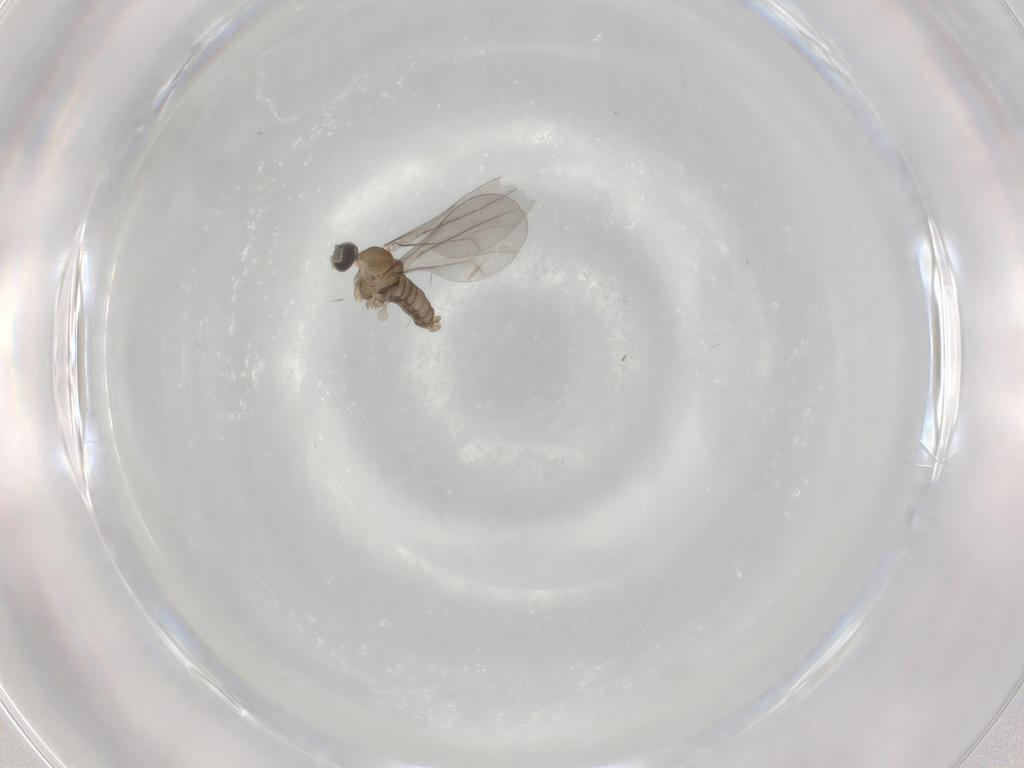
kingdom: Animalia
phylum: Arthropoda
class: Insecta
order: Diptera
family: Cecidomyiidae
